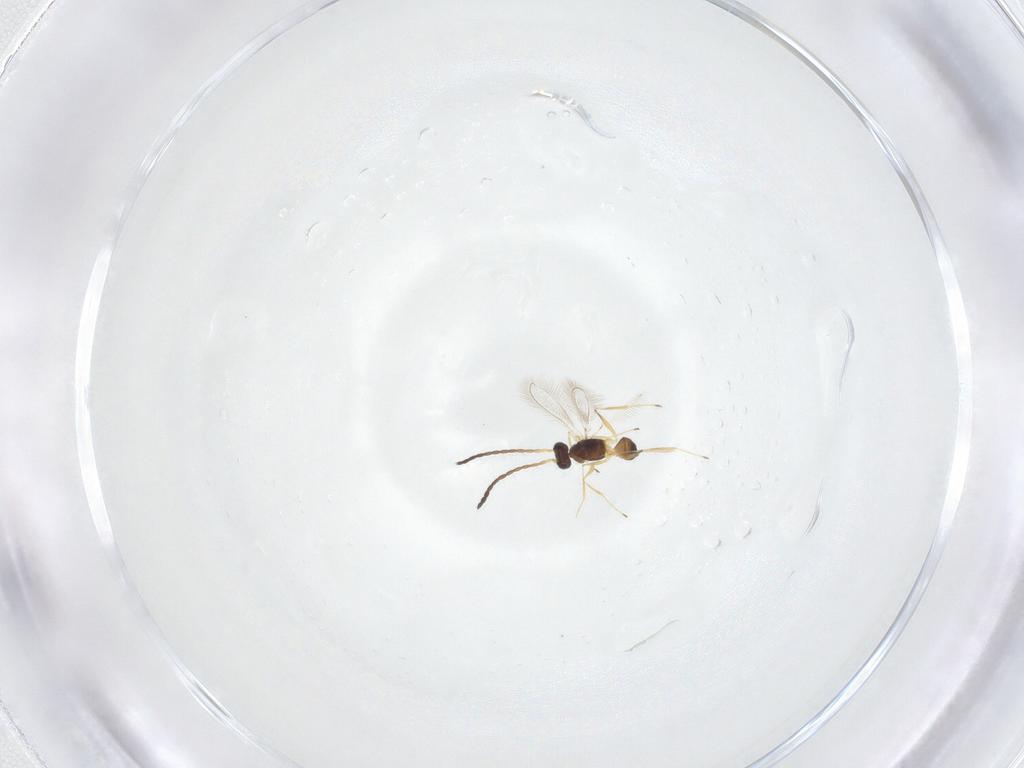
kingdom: Animalia
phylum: Arthropoda
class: Insecta
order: Hymenoptera
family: Mymaridae
